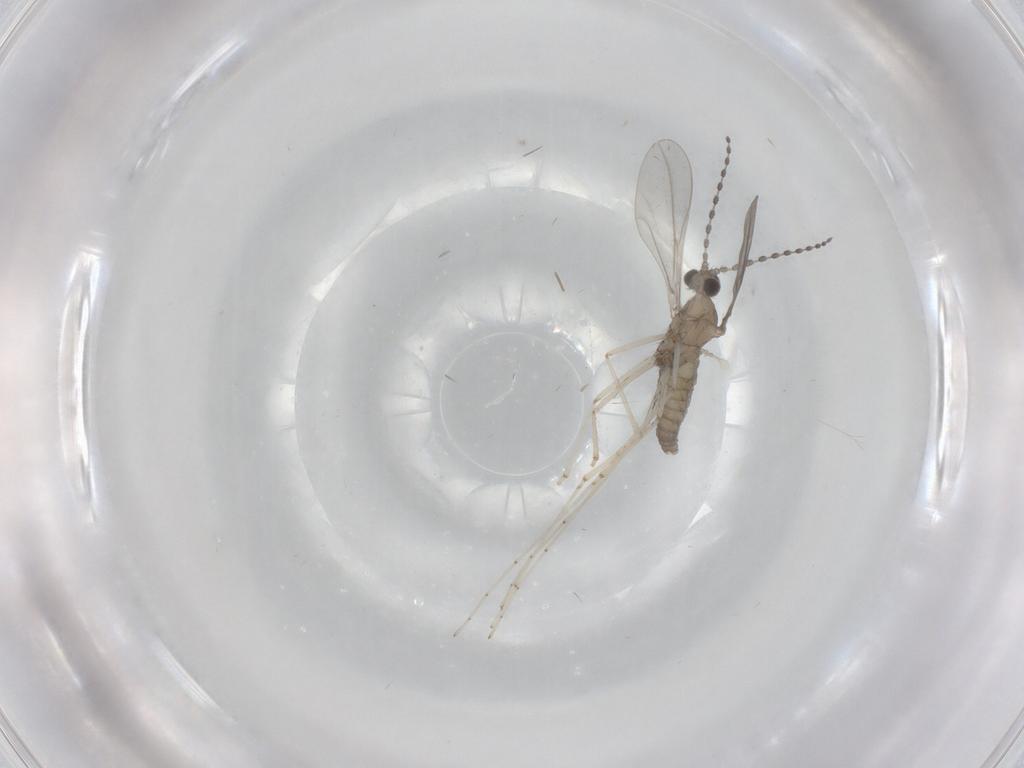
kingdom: Animalia
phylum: Arthropoda
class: Insecta
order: Diptera
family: Cecidomyiidae
